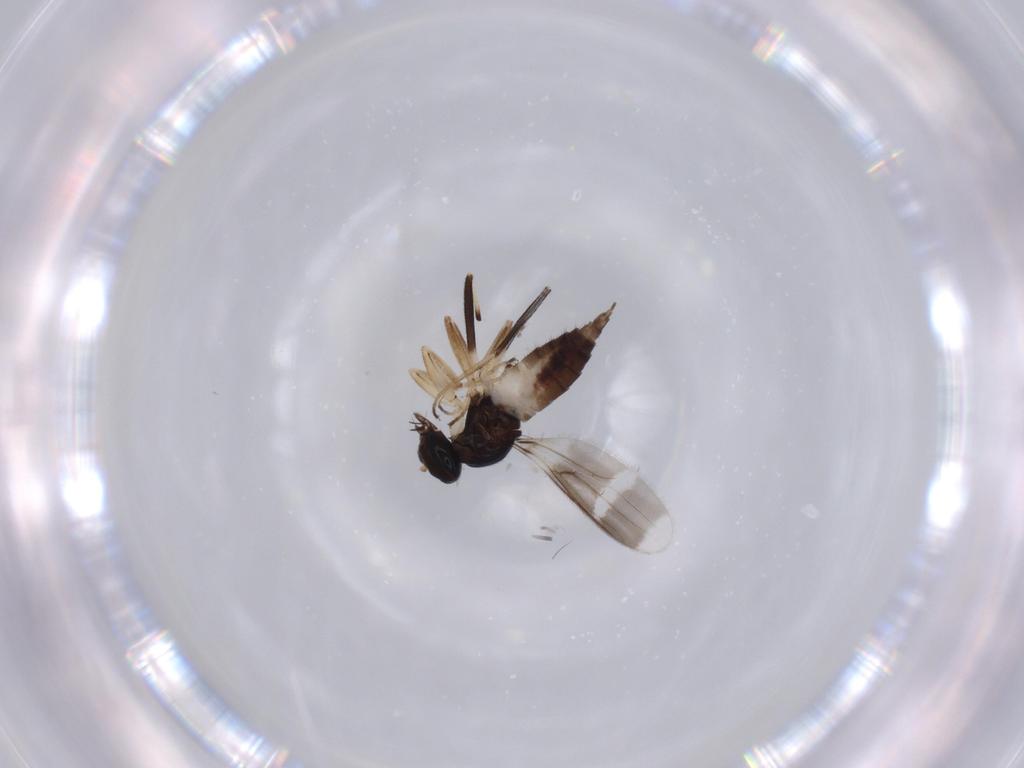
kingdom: Animalia
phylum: Arthropoda
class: Insecta
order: Diptera
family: Hybotidae
